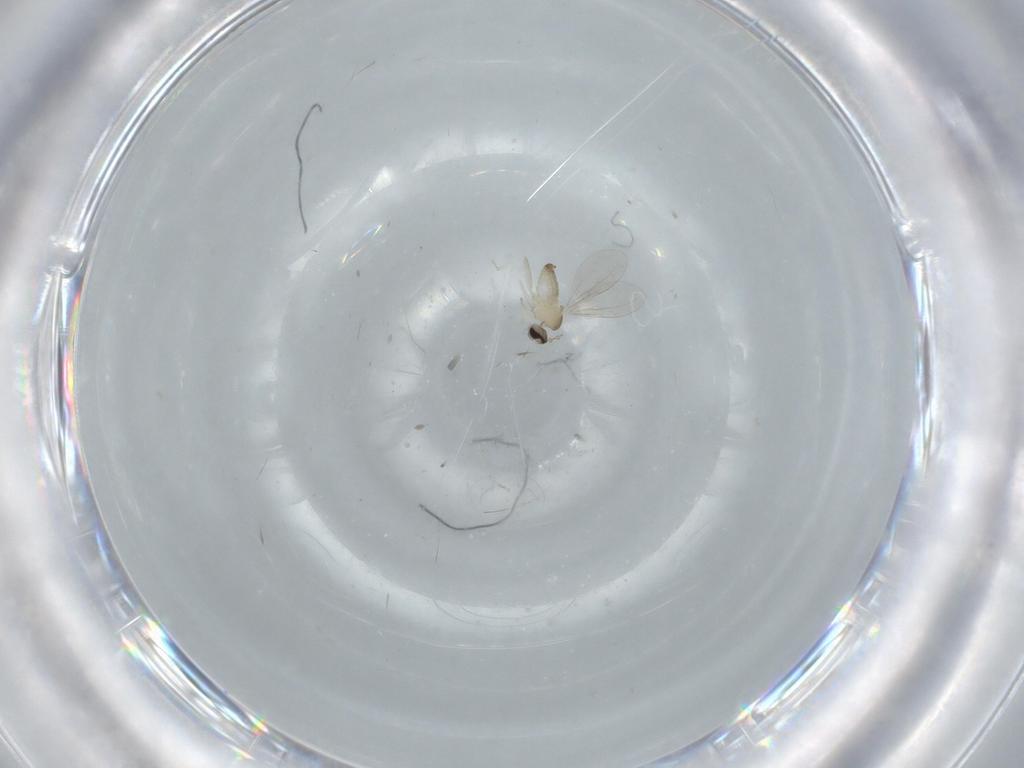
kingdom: Animalia
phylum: Arthropoda
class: Insecta
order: Diptera
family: Cecidomyiidae
